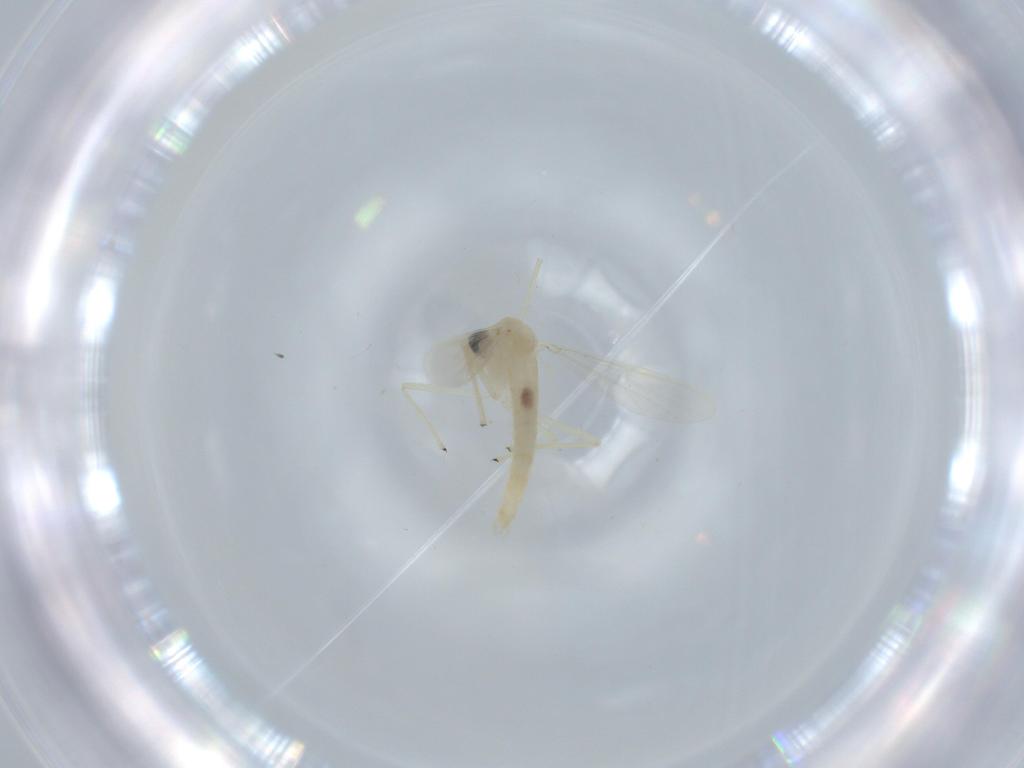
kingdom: Animalia
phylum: Arthropoda
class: Insecta
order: Diptera
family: Chironomidae
